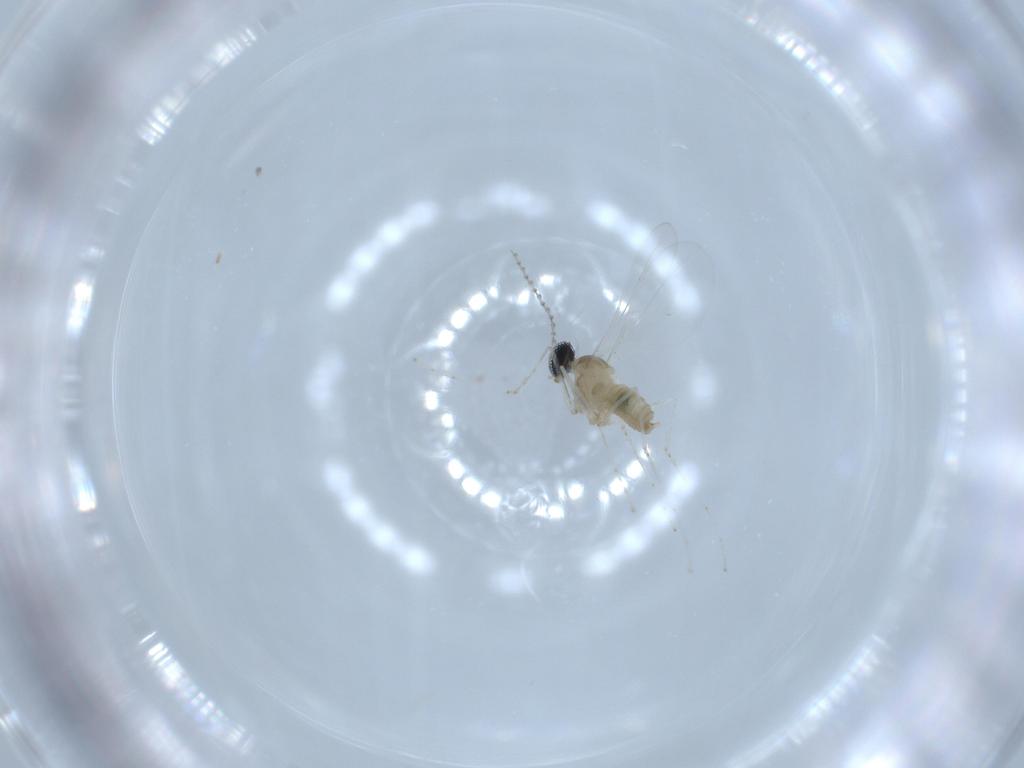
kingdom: Animalia
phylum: Arthropoda
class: Insecta
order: Diptera
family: Cecidomyiidae
